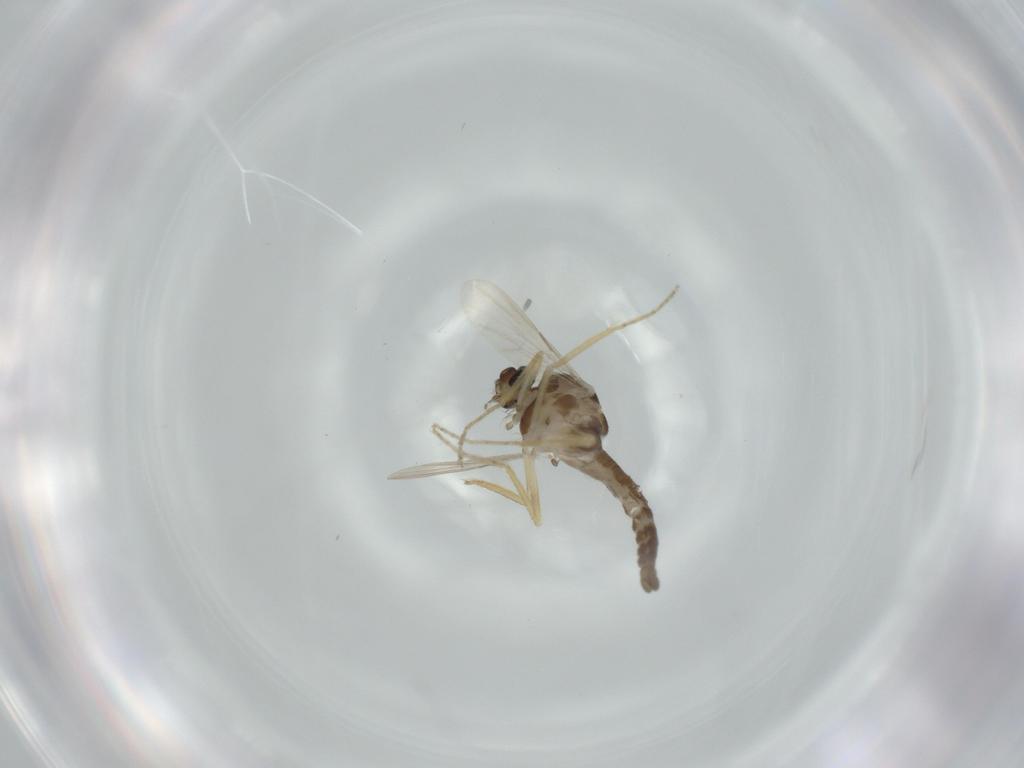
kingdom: Animalia
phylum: Arthropoda
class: Insecta
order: Diptera
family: Ceratopogonidae
